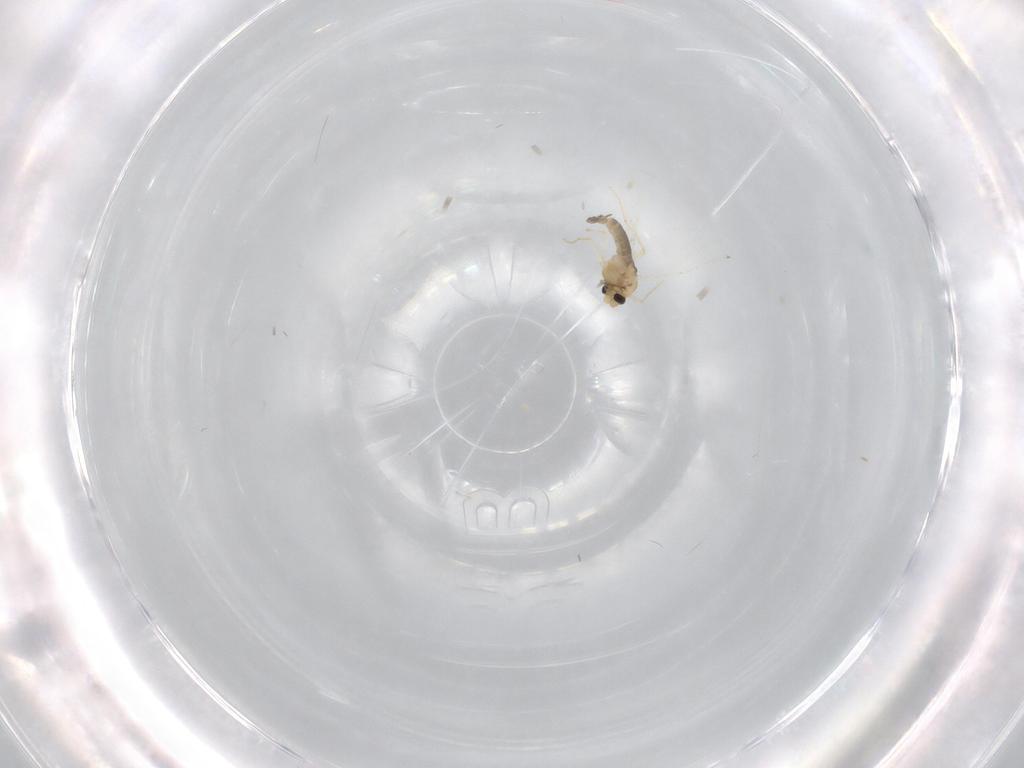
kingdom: Animalia
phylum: Arthropoda
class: Insecta
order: Diptera
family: Chironomidae
